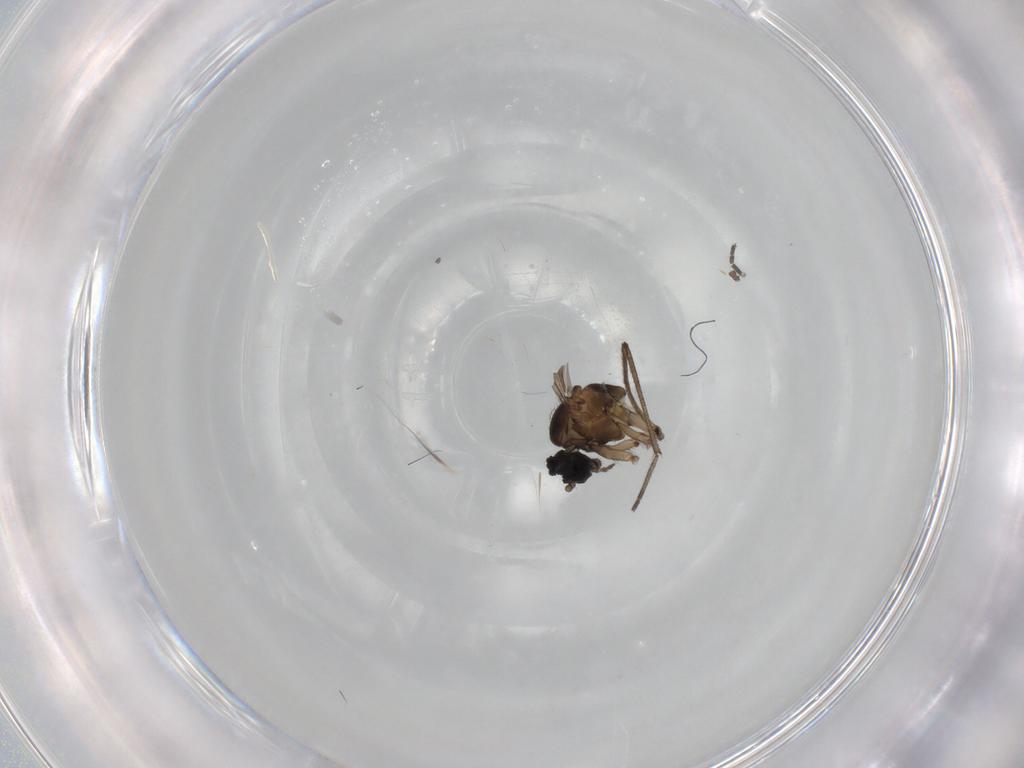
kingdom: Animalia
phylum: Arthropoda
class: Insecta
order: Diptera
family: Sciaridae
